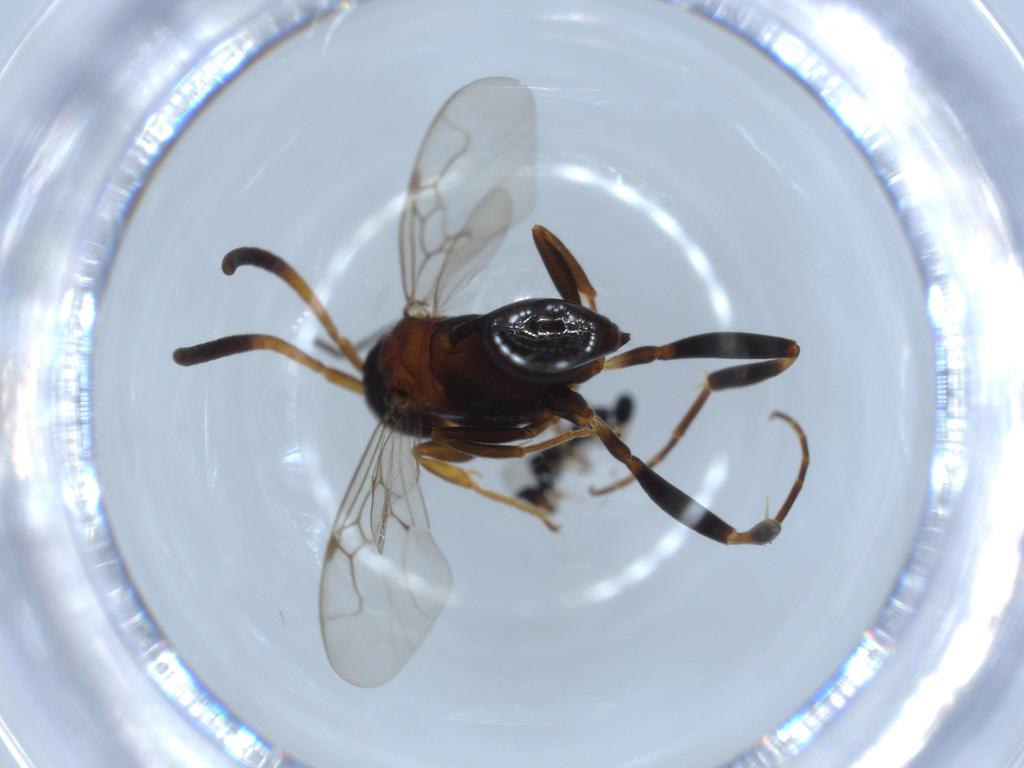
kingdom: Animalia
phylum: Arthropoda
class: Insecta
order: Hymenoptera
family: Platygastridae
